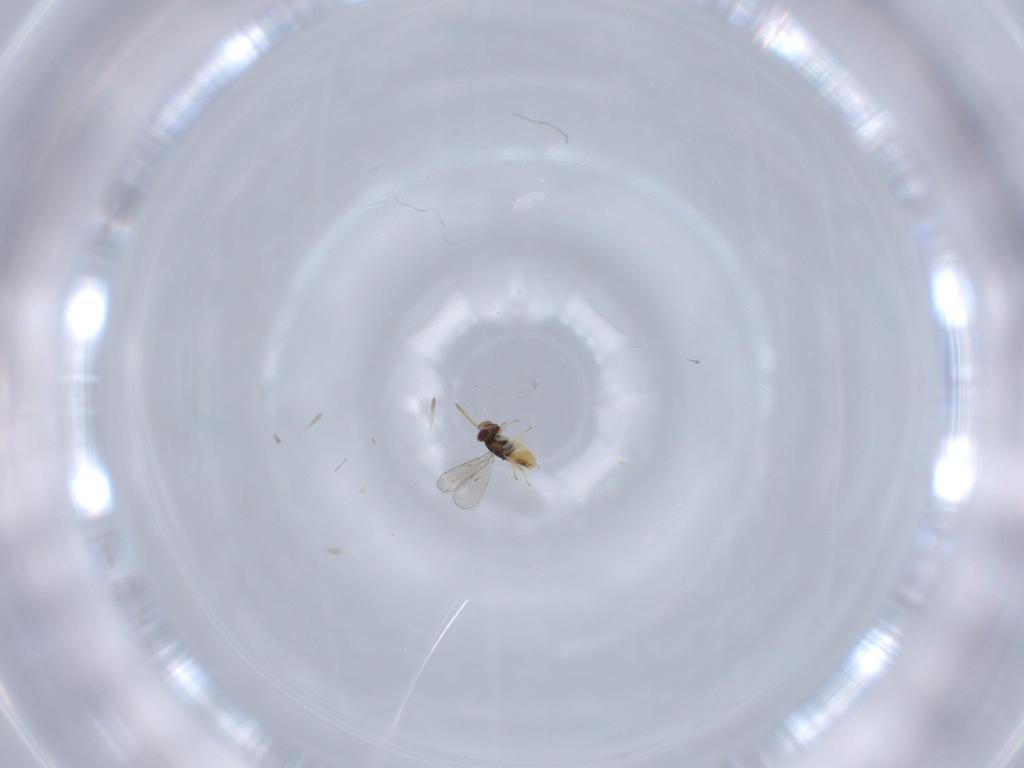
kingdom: Animalia
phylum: Arthropoda
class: Insecta
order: Hymenoptera
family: Aphelinidae
